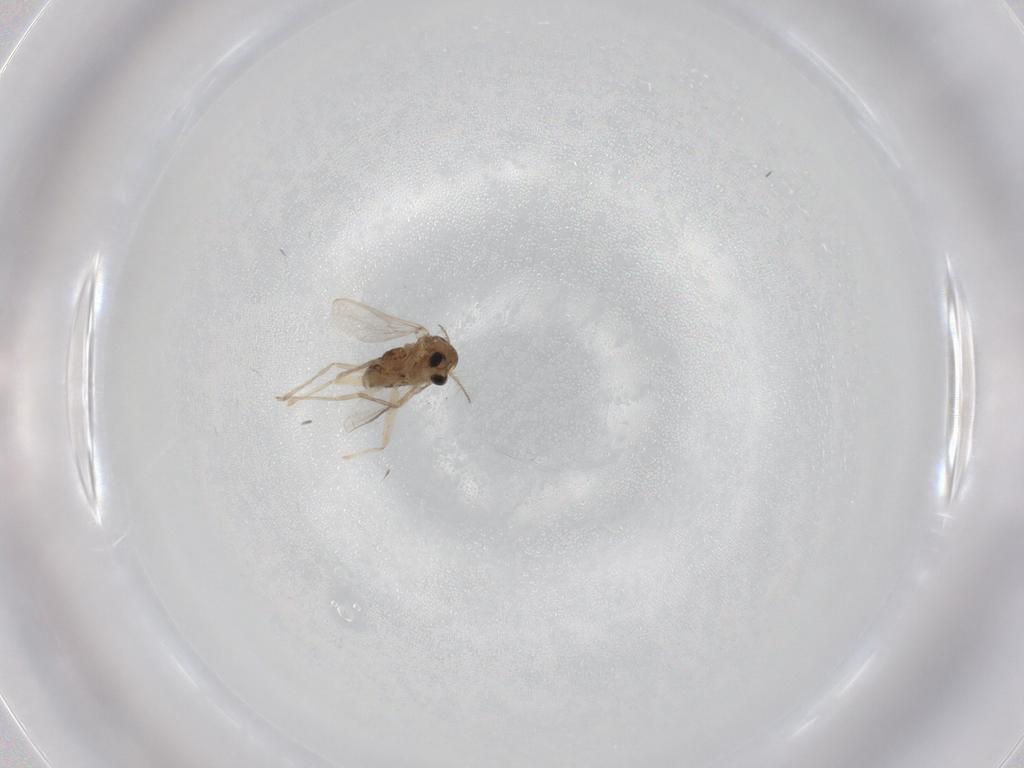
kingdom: Animalia
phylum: Arthropoda
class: Insecta
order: Diptera
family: Chironomidae
